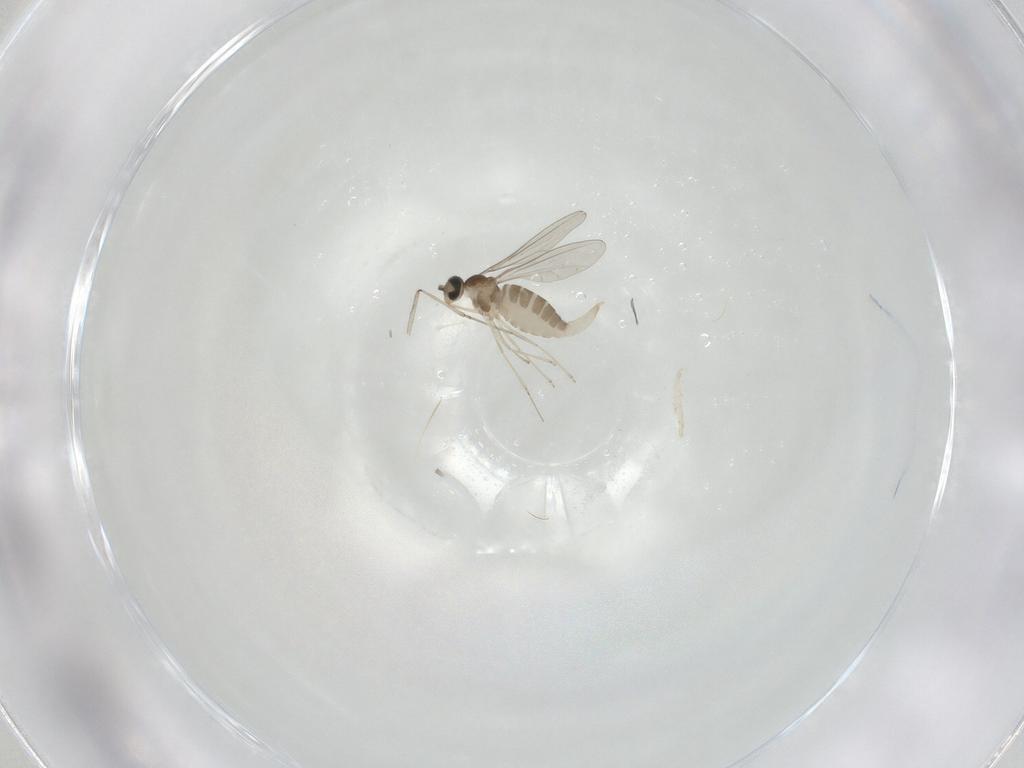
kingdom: Animalia
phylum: Arthropoda
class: Insecta
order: Diptera
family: Cecidomyiidae
